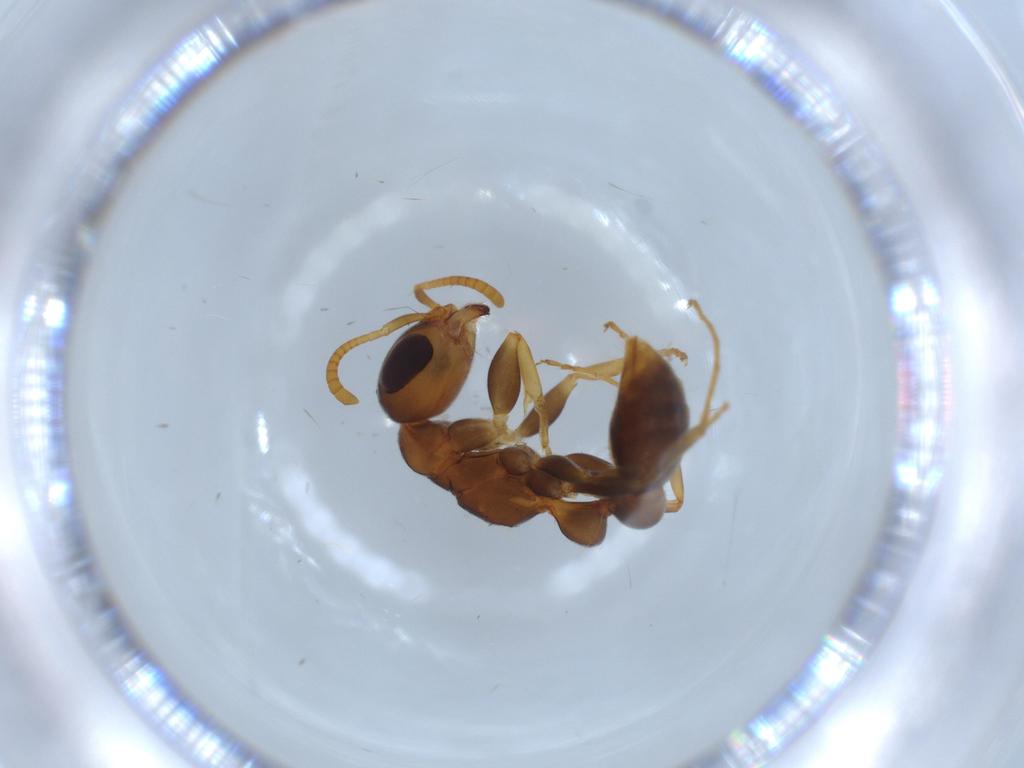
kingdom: Animalia
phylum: Arthropoda
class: Insecta
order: Hymenoptera
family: Formicidae
